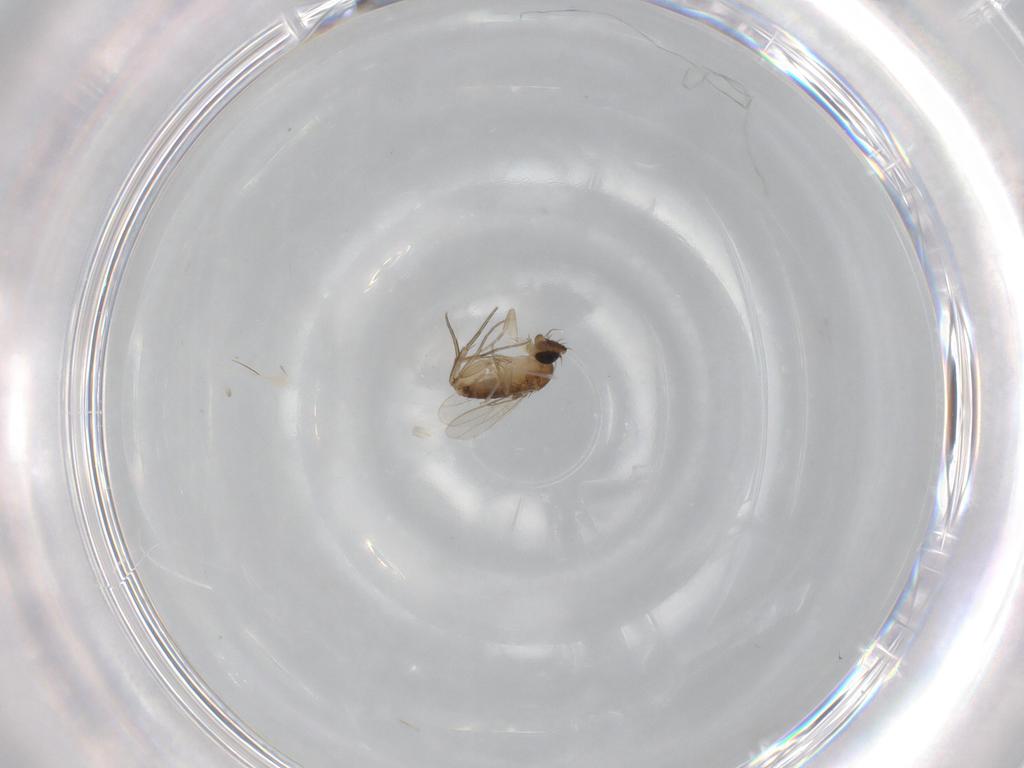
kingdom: Animalia
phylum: Arthropoda
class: Insecta
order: Diptera
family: Phoridae
